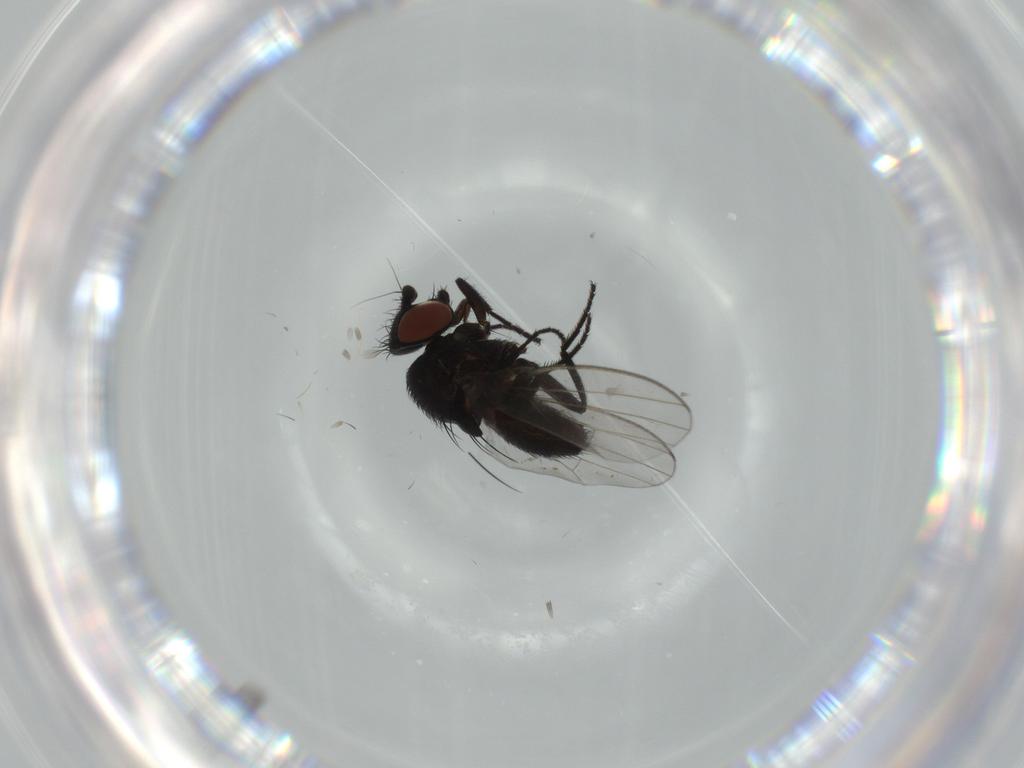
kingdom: Animalia
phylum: Arthropoda
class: Insecta
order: Diptera
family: Milichiidae
